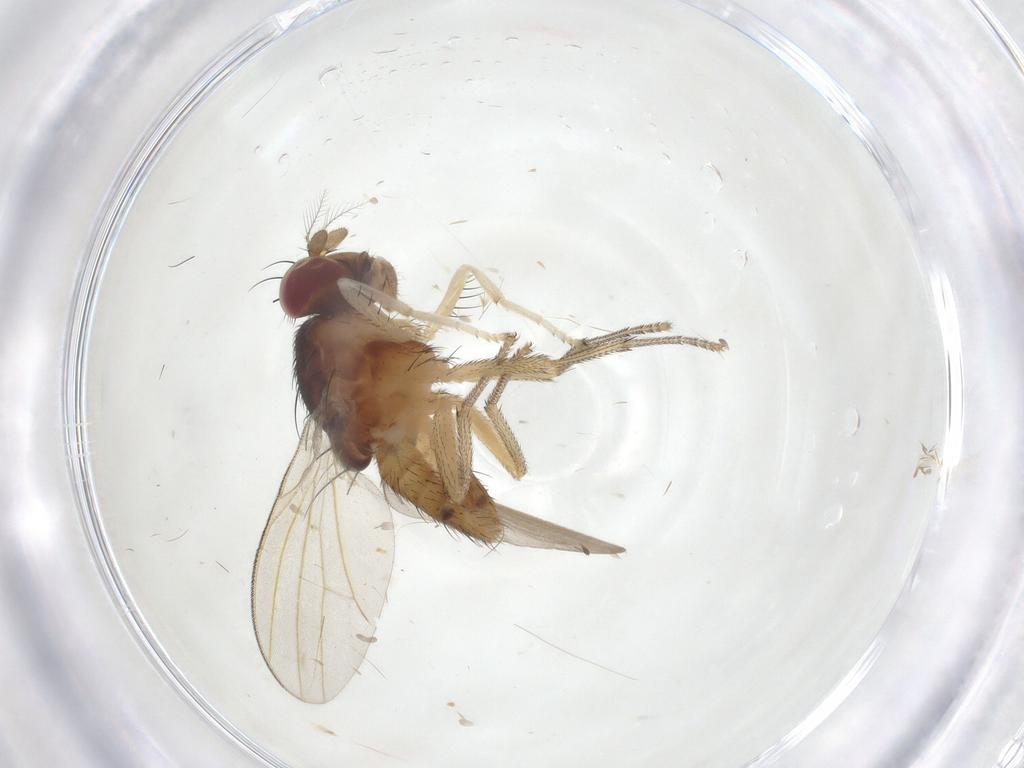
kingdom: Animalia
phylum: Arthropoda
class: Insecta
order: Diptera
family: Lauxaniidae
